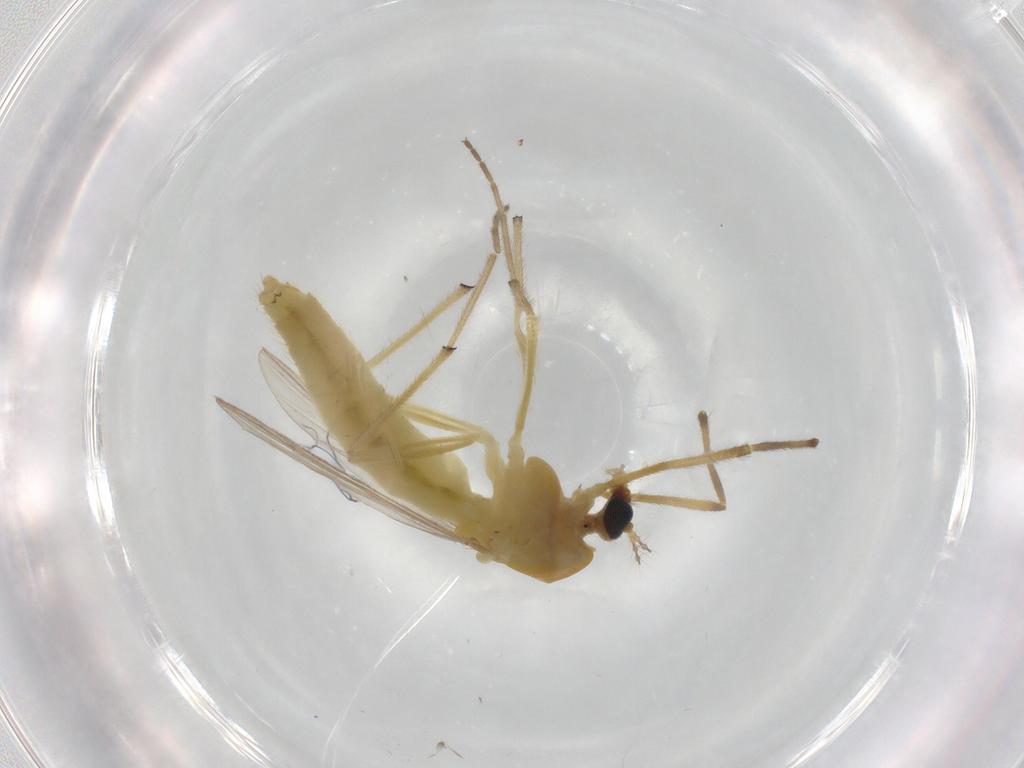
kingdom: Animalia
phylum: Arthropoda
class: Insecta
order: Diptera
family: Chironomidae
